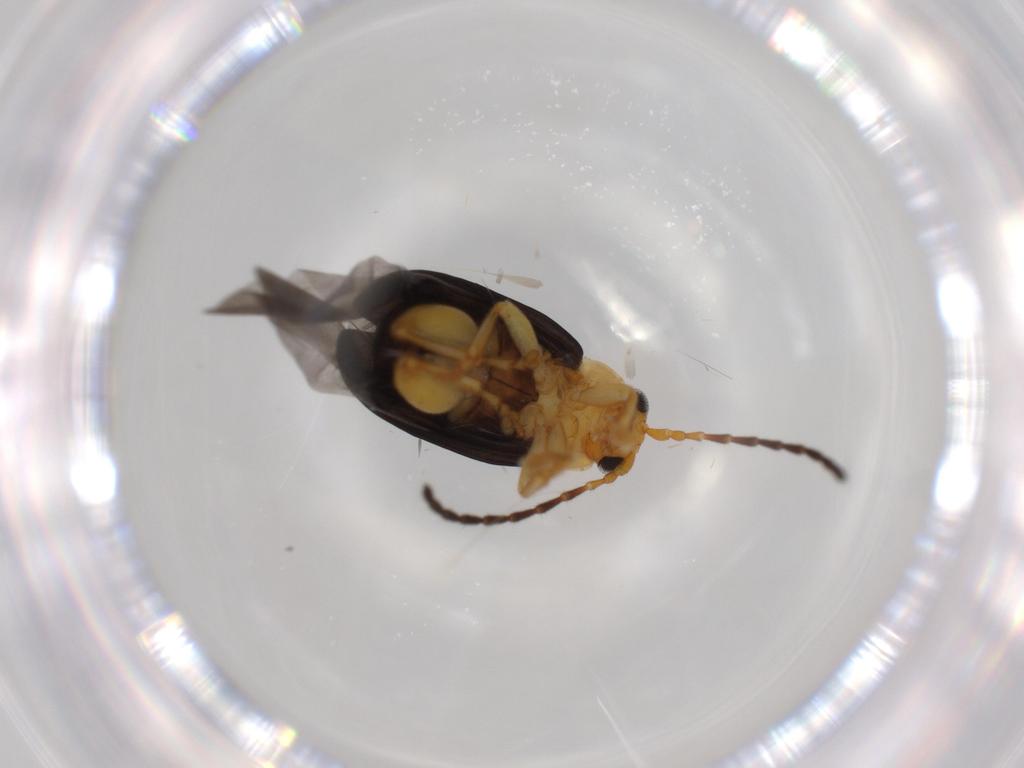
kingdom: Animalia
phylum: Arthropoda
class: Insecta
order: Coleoptera
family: Chrysomelidae
